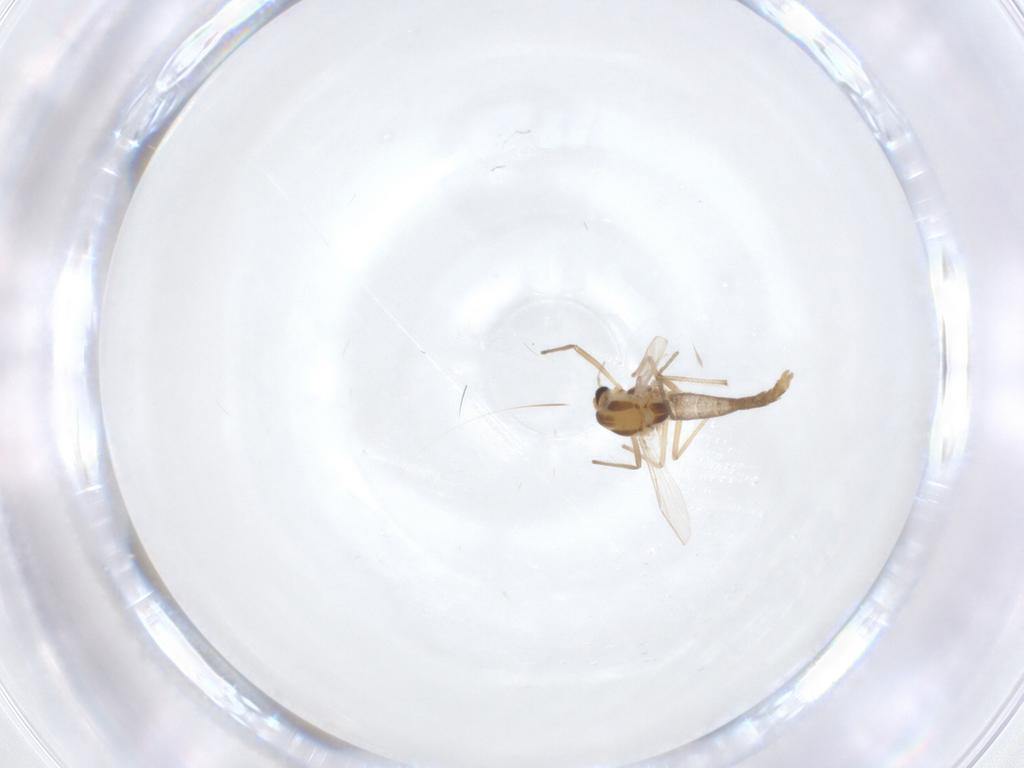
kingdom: Animalia
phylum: Arthropoda
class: Insecta
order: Diptera
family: Chironomidae
